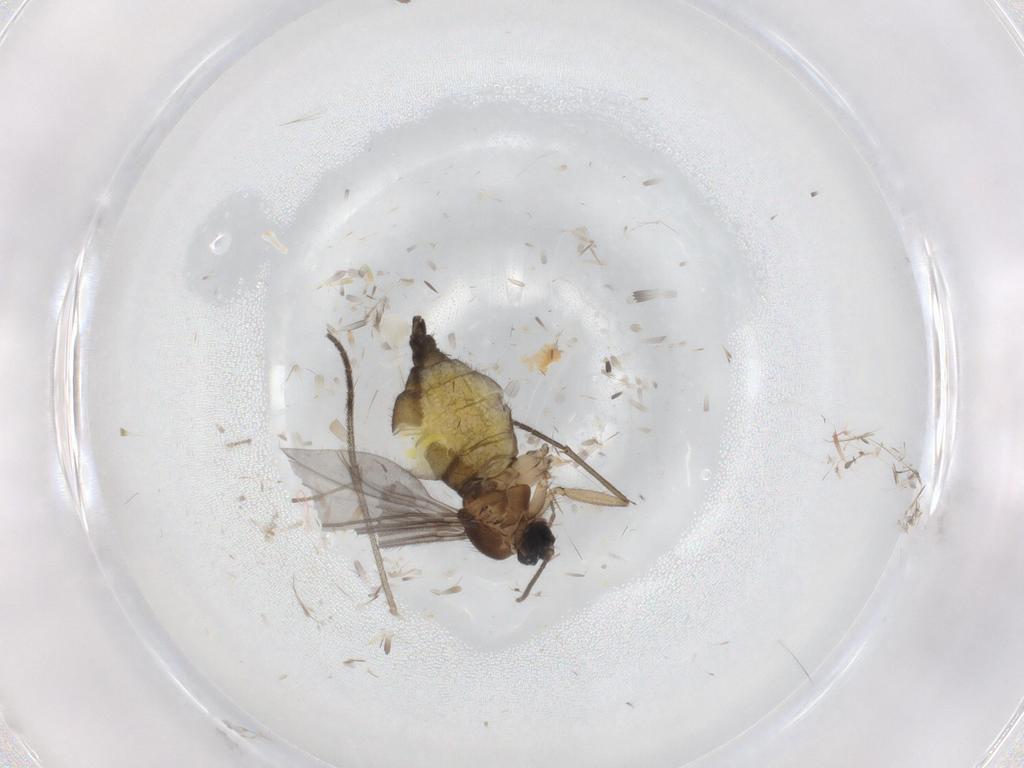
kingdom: Animalia
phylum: Arthropoda
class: Insecta
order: Diptera
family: Sciaridae
